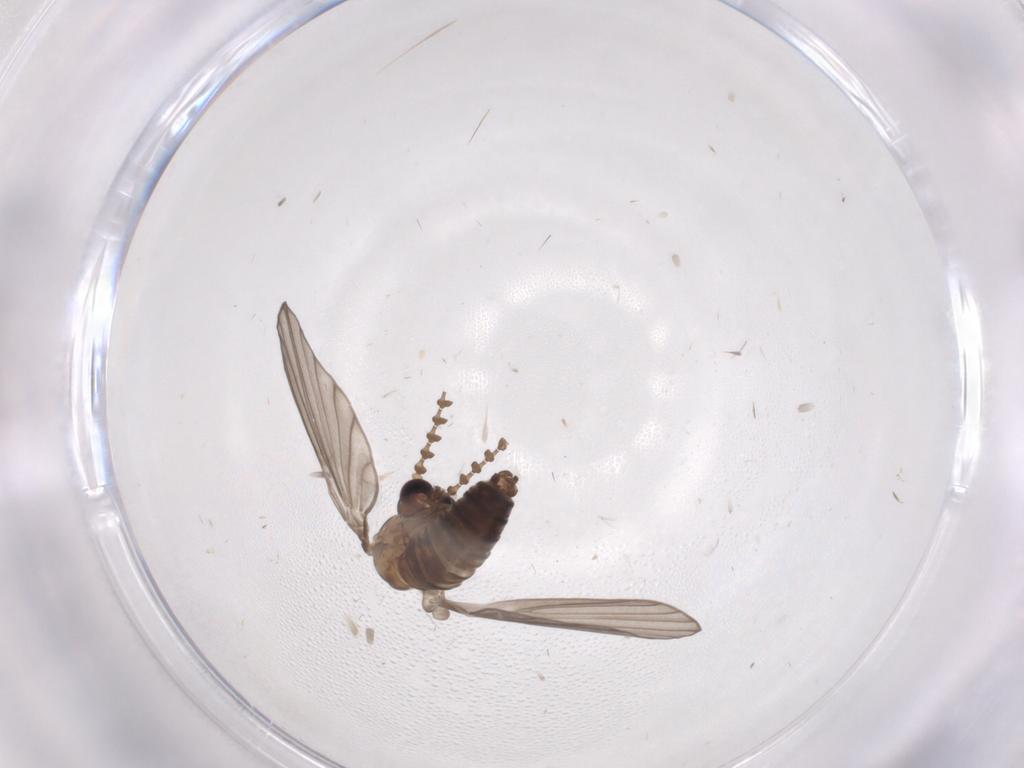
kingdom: Animalia
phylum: Arthropoda
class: Insecta
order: Diptera
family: Psychodidae
